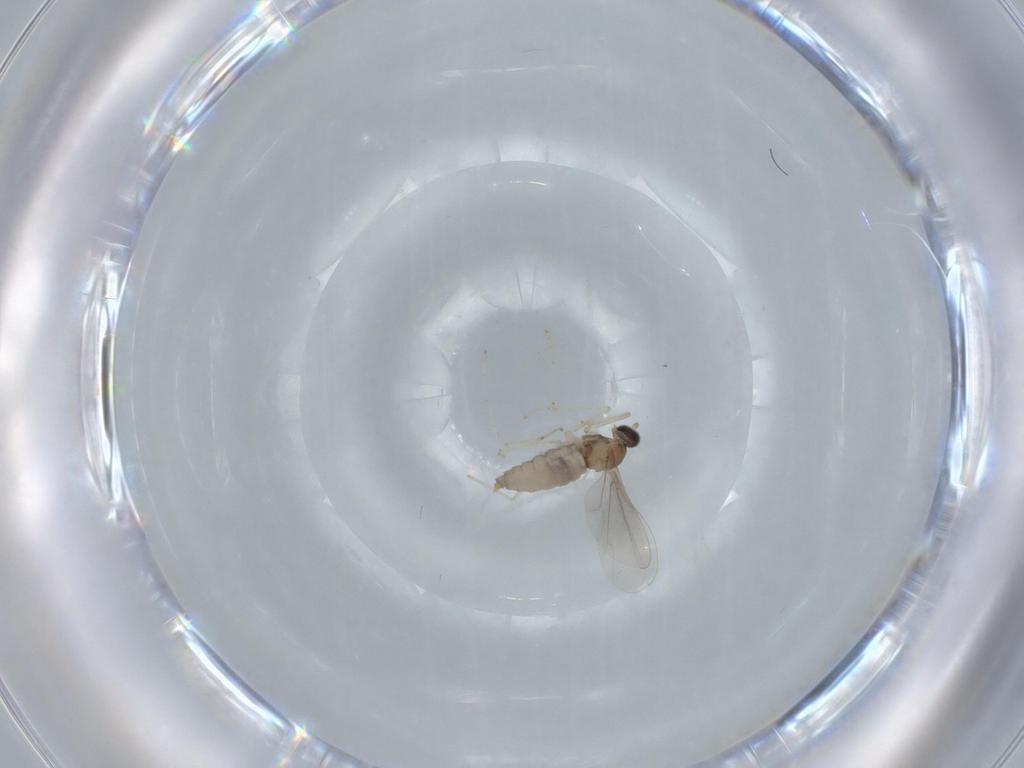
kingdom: Animalia
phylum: Arthropoda
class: Insecta
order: Diptera
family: Cecidomyiidae
